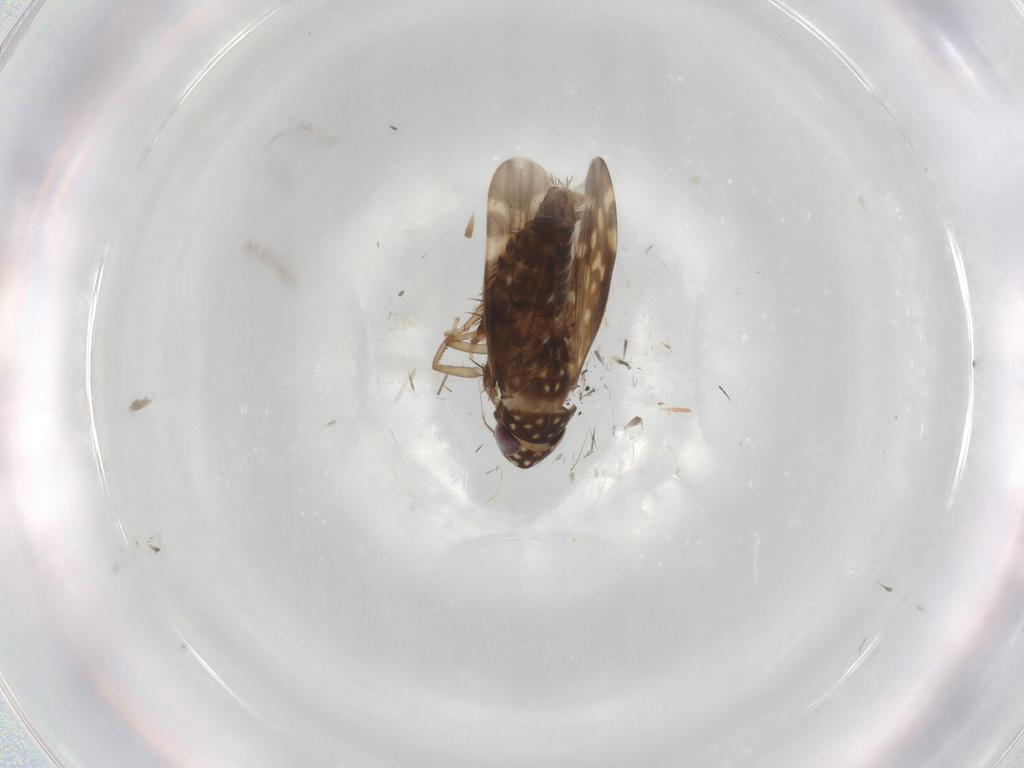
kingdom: Animalia
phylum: Arthropoda
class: Insecta
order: Hemiptera
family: Cicadellidae
